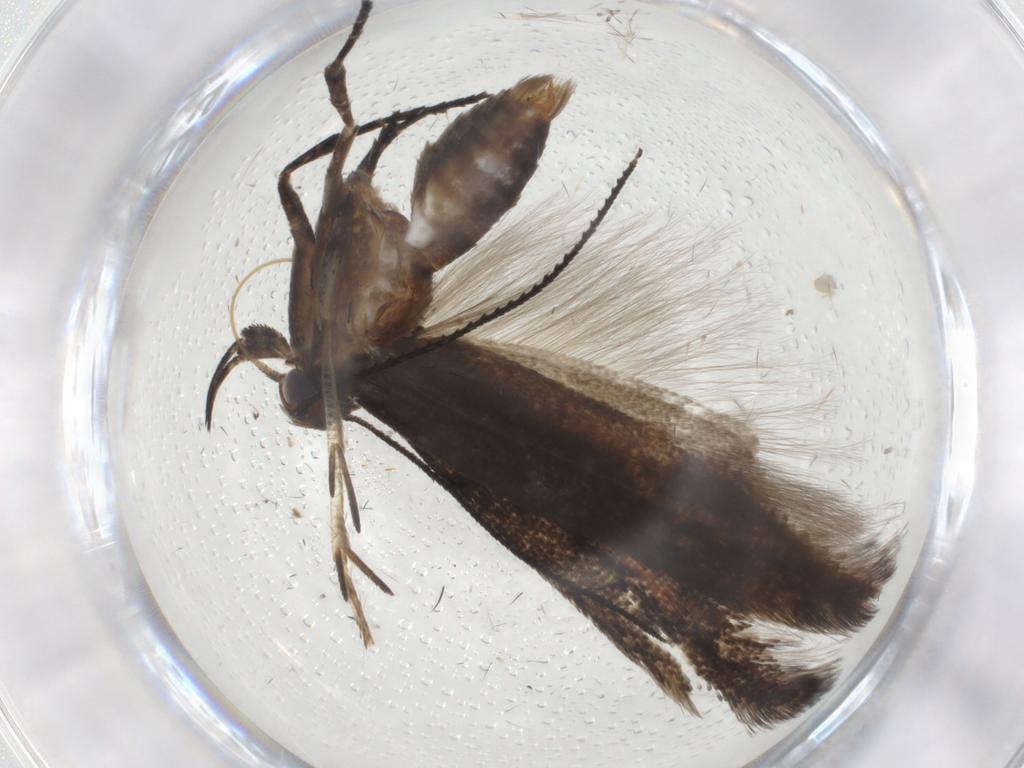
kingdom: Animalia
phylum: Arthropoda
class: Insecta
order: Lepidoptera
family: Gelechiidae
